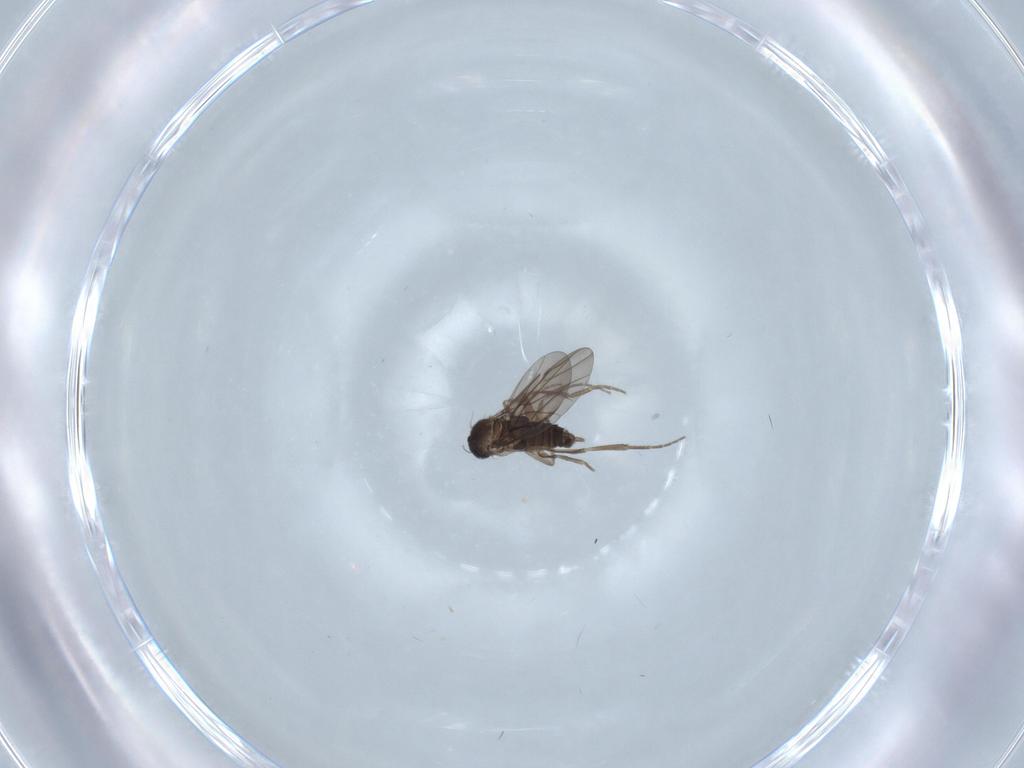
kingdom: Animalia
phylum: Arthropoda
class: Insecta
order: Diptera
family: Phoridae
